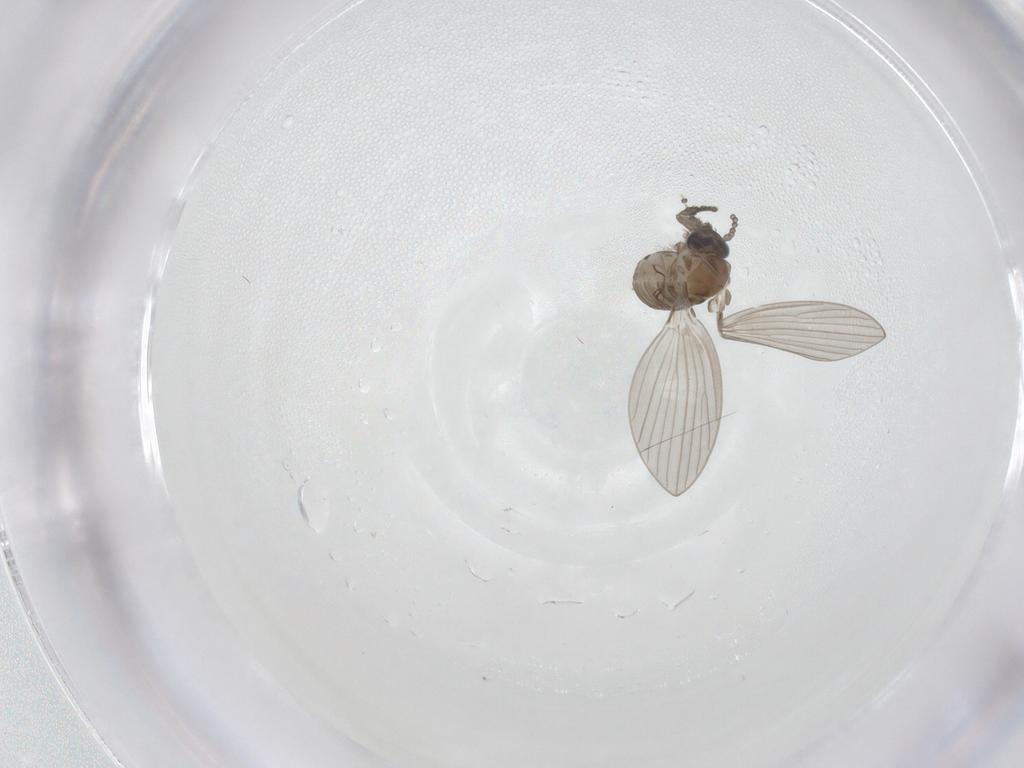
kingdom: Animalia
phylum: Arthropoda
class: Insecta
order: Diptera
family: Psychodidae
